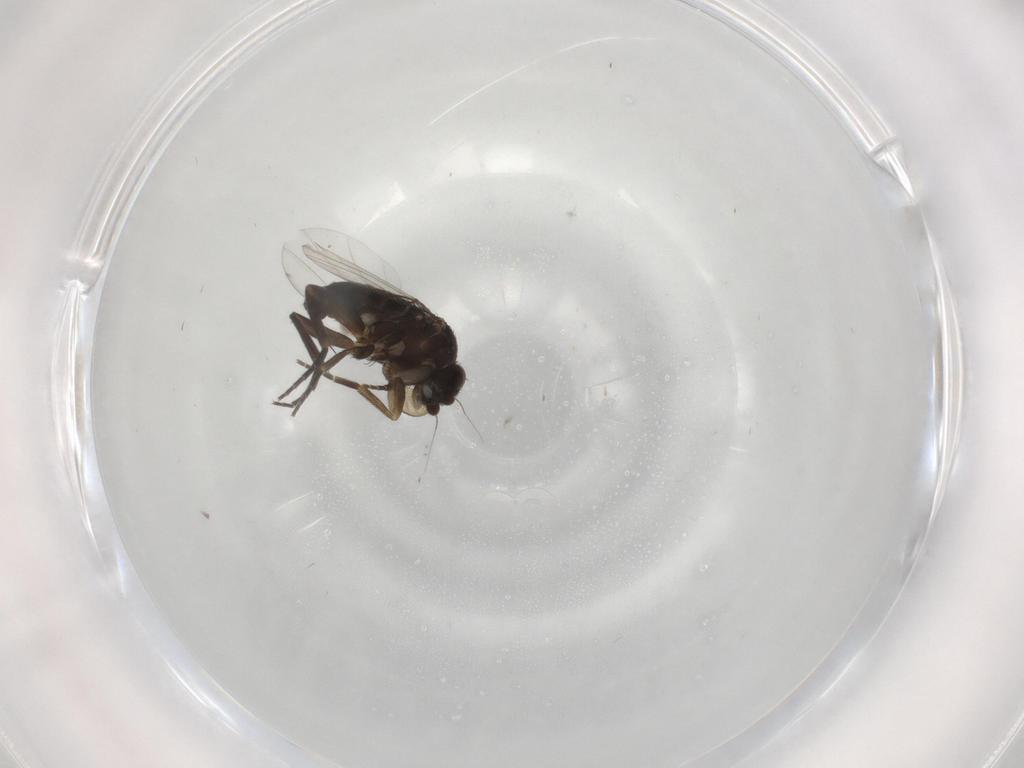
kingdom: Animalia
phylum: Arthropoda
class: Insecta
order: Diptera
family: Phoridae
